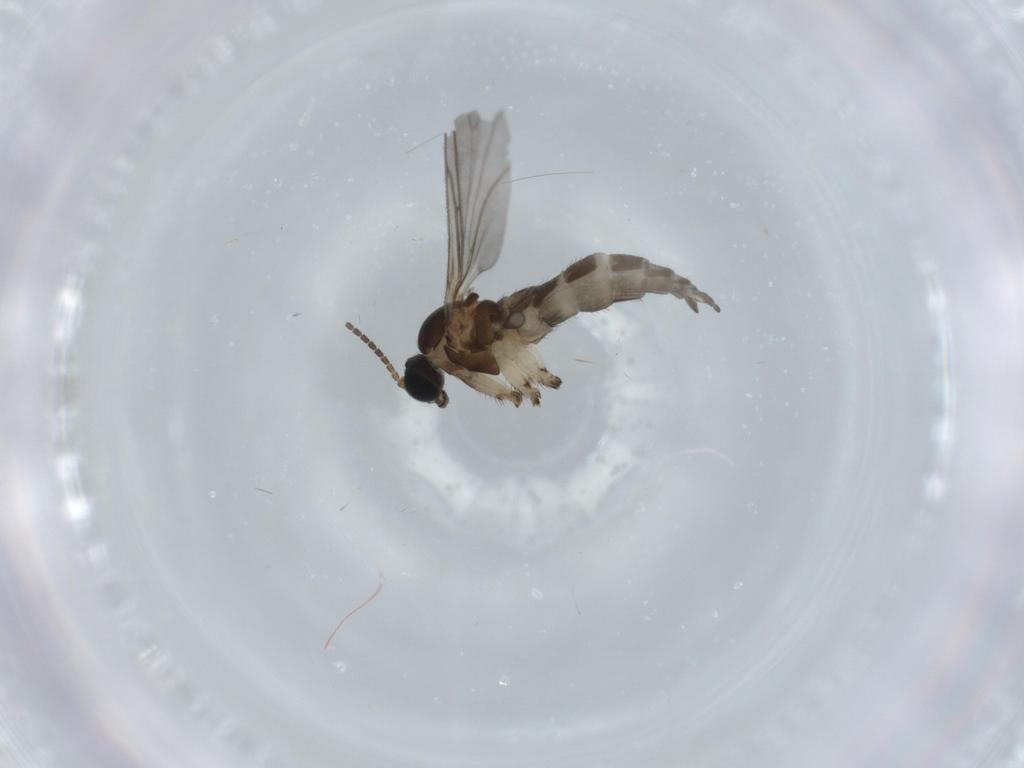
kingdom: Animalia
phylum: Arthropoda
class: Insecta
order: Diptera
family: Sciaridae
